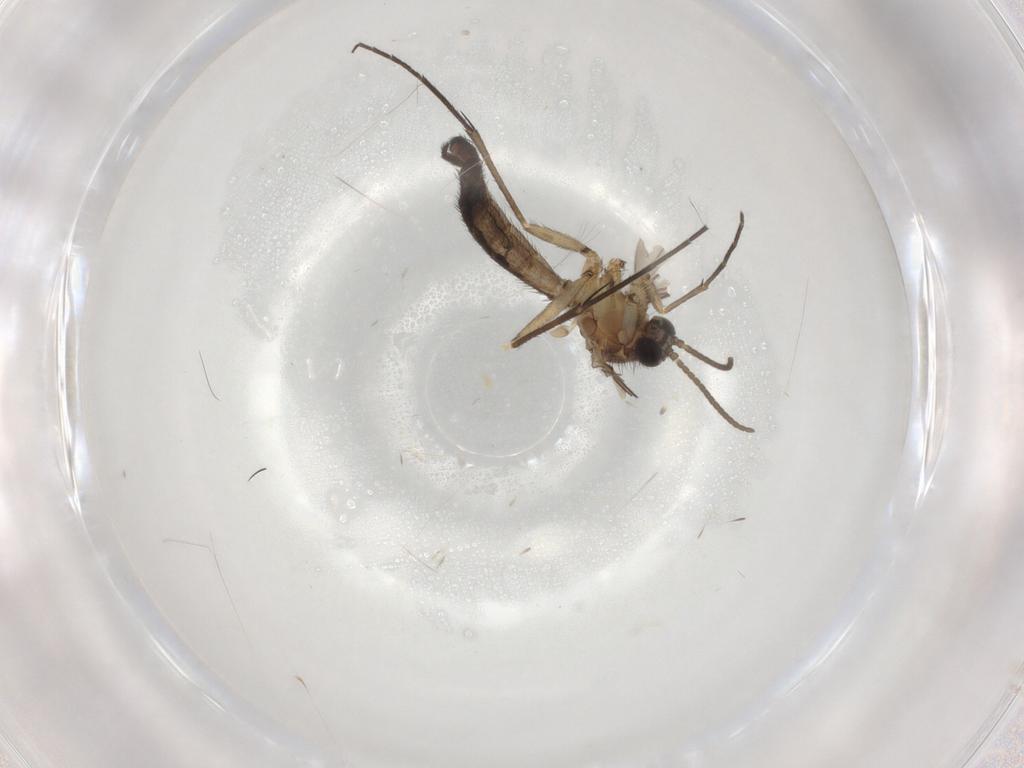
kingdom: Animalia
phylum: Arthropoda
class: Insecta
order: Diptera
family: Keroplatidae
